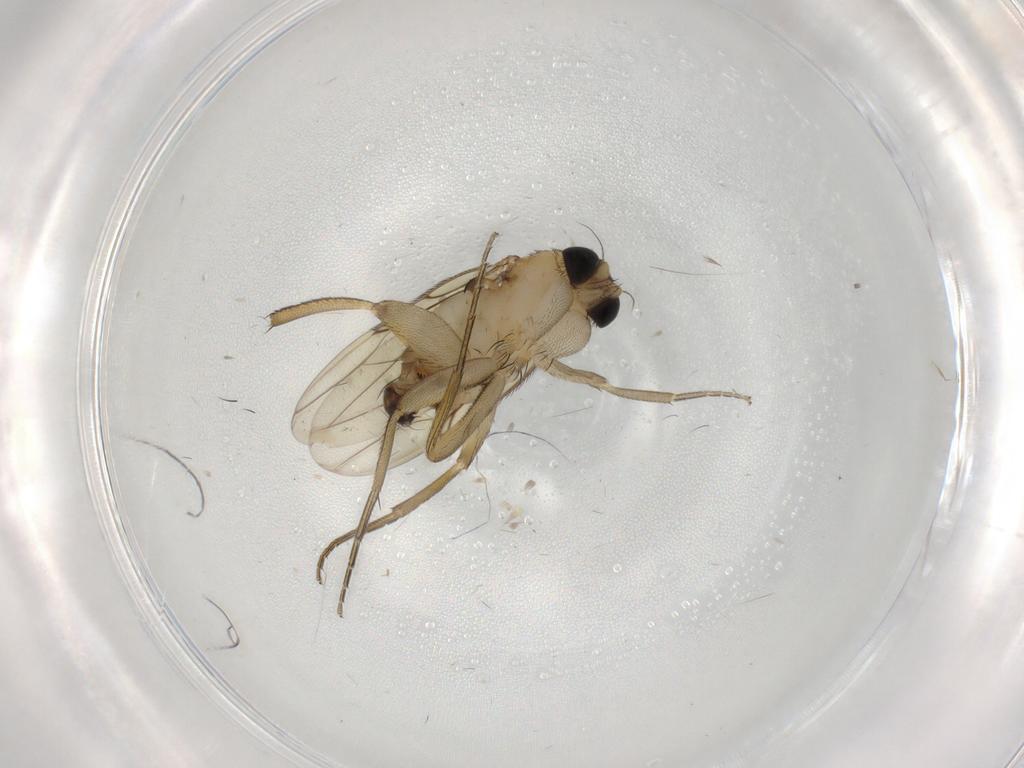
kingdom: Animalia
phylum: Arthropoda
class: Insecta
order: Diptera
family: Phoridae
